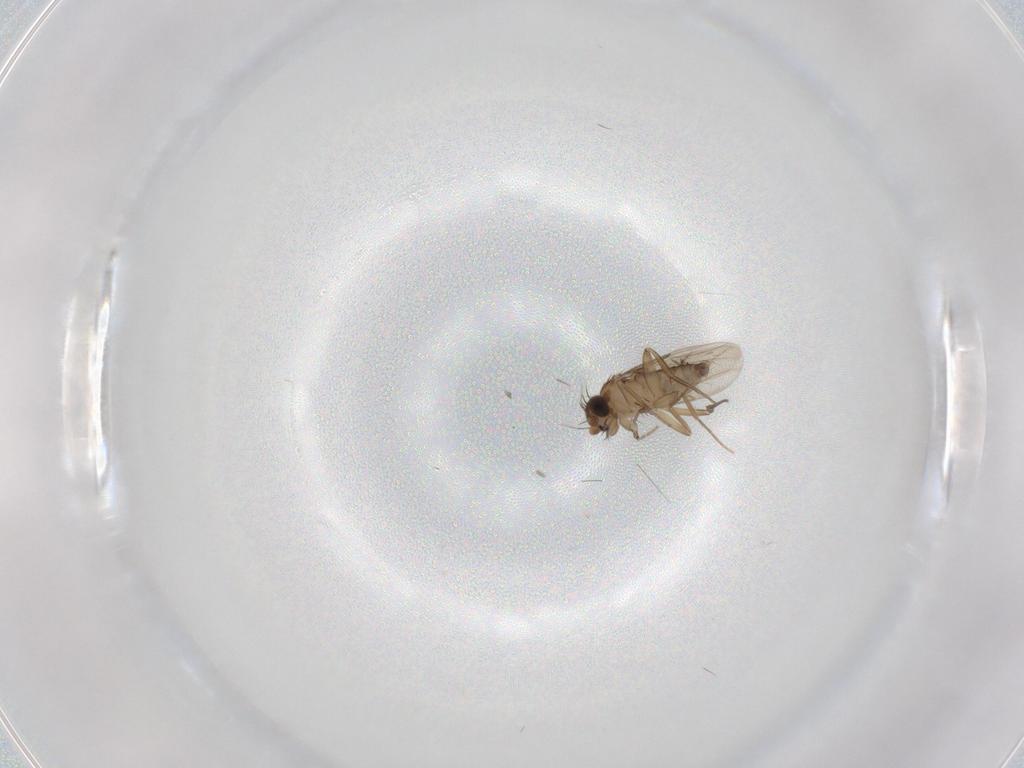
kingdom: Animalia
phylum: Arthropoda
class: Insecta
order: Diptera
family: Phoridae
